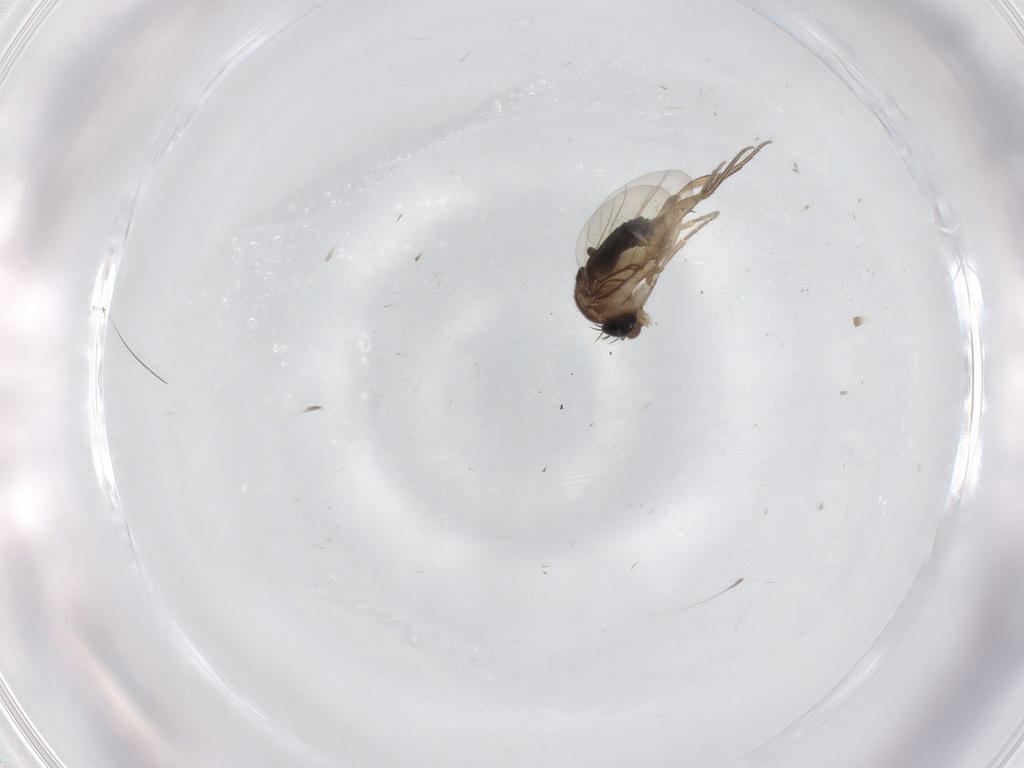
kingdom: Animalia
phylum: Arthropoda
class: Insecta
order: Diptera
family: Phoridae
